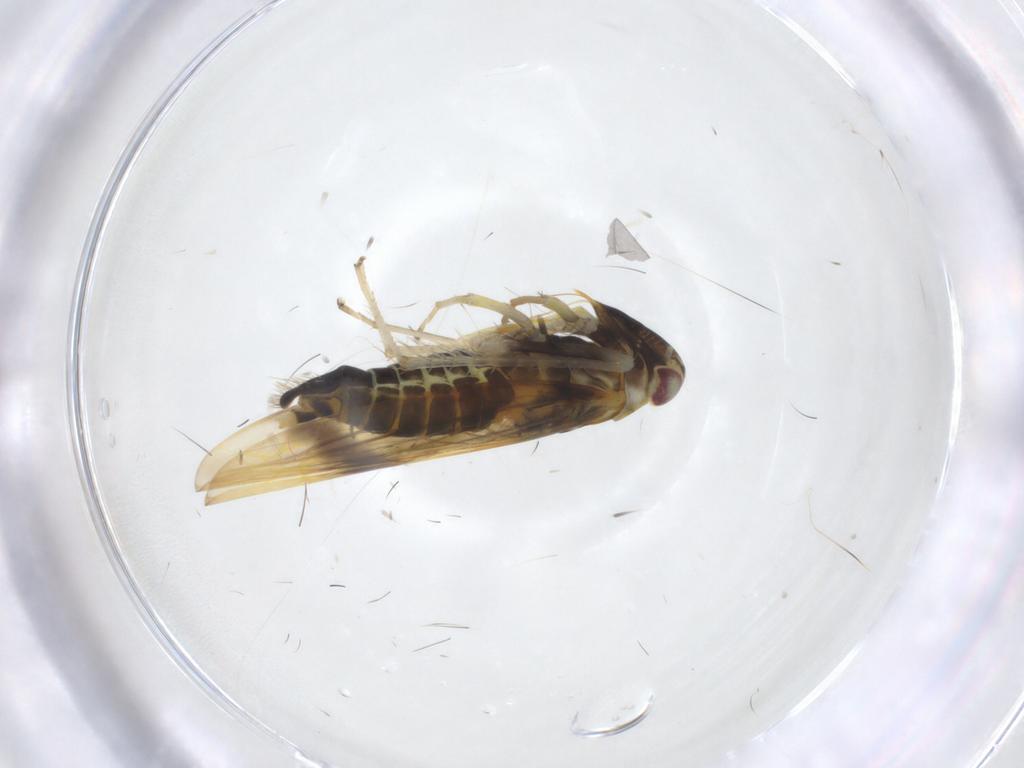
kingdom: Animalia
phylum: Arthropoda
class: Insecta
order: Hemiptera
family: Cicadellidae
